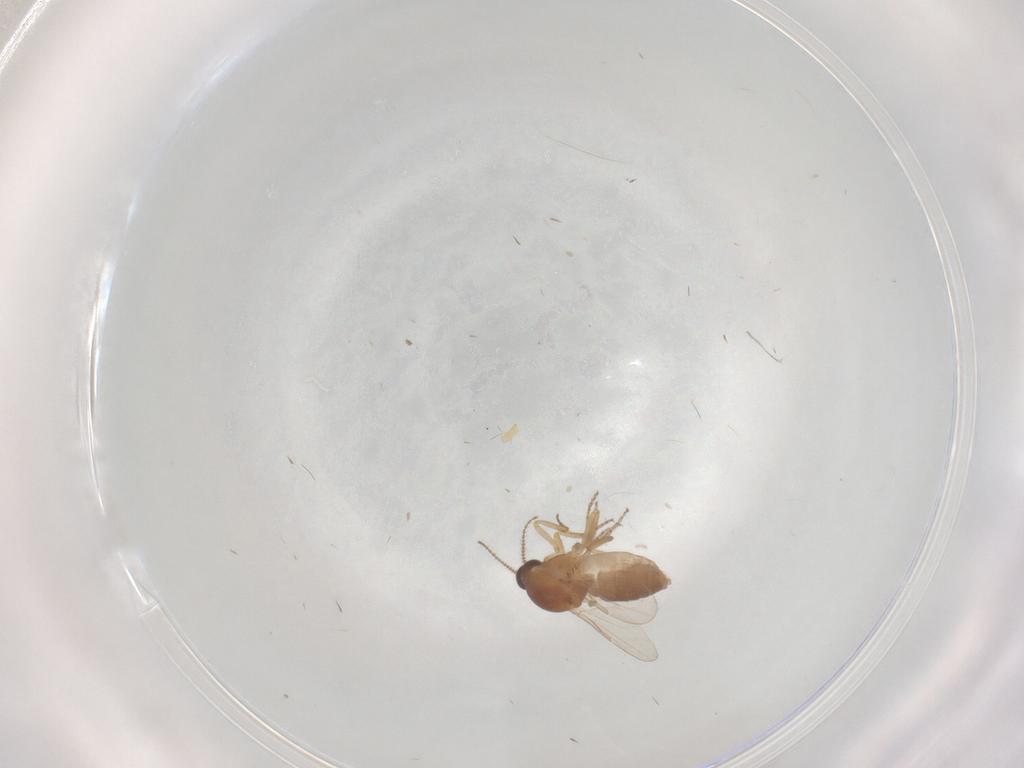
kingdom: Animalia
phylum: Arthropoda
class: Insecta
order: Diptera
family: Ceratopogonidae
